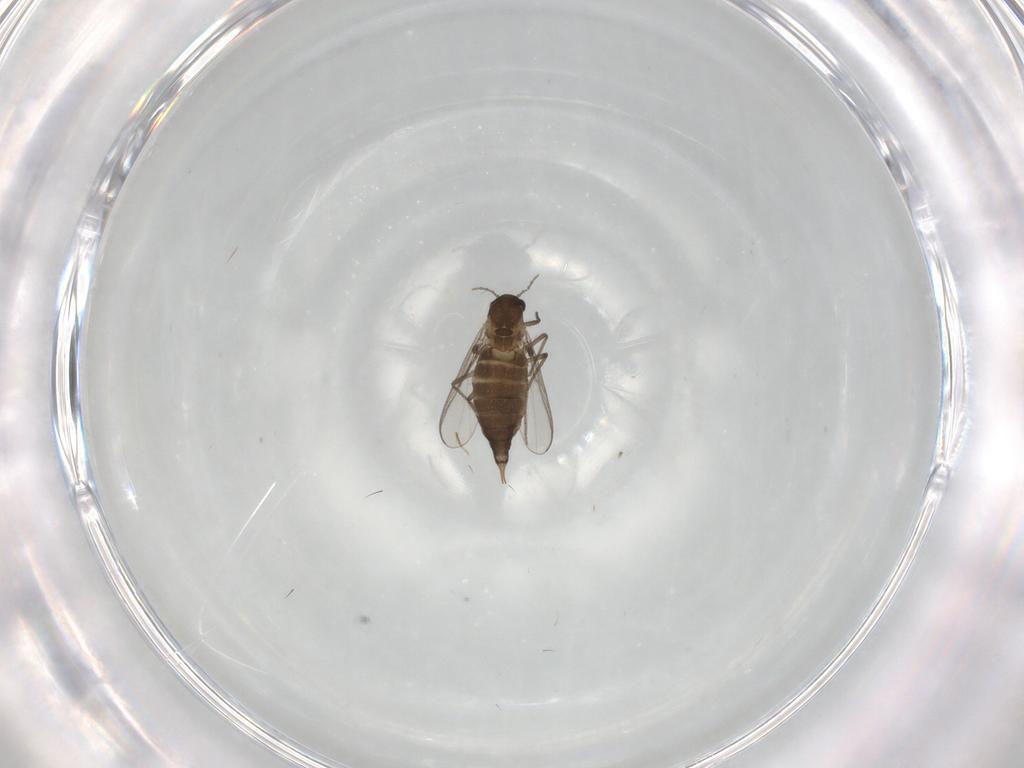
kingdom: Animalia
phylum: Arthropoda
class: Insecta
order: Diptera
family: Chironomidae
